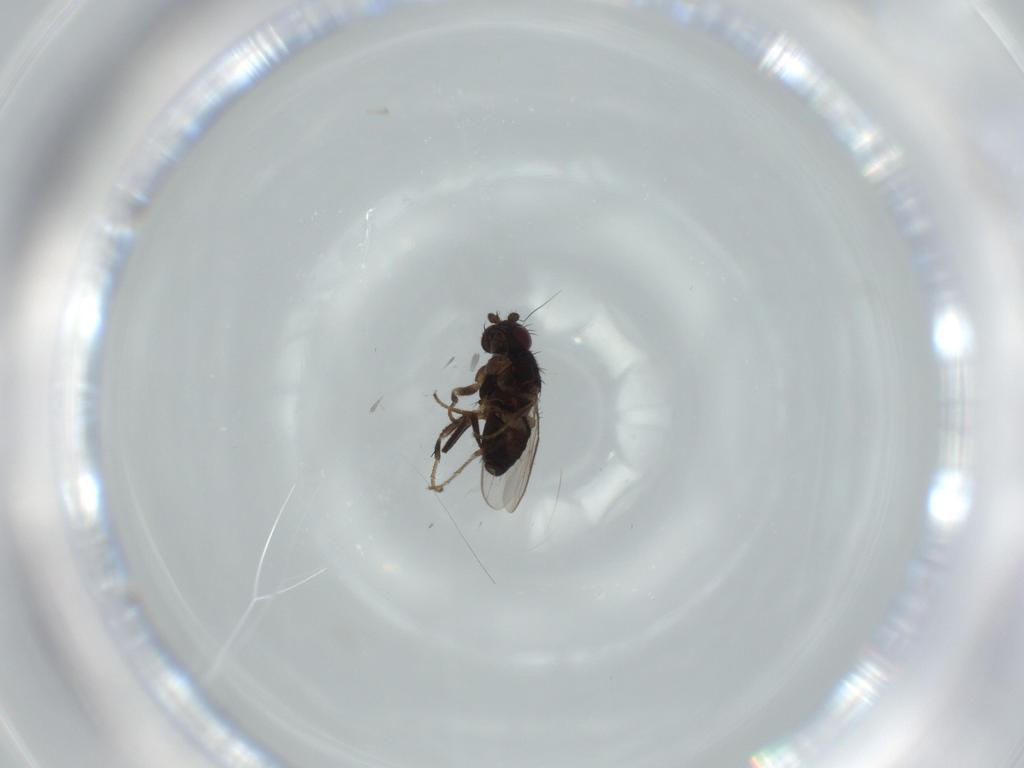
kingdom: Animalia
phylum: Arthropoda
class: Insecta
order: Diptera
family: Sphaeroceridae
